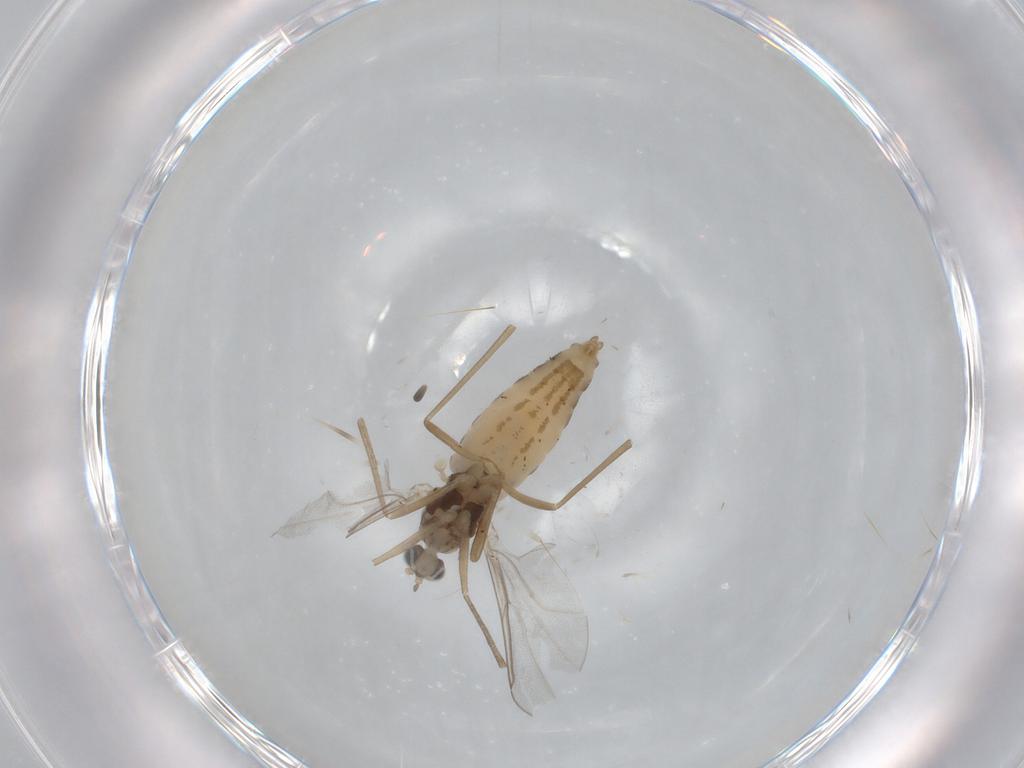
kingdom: Animalia
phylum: Arthropoda
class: Insecta
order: Diptera
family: Cecidomyiidae
